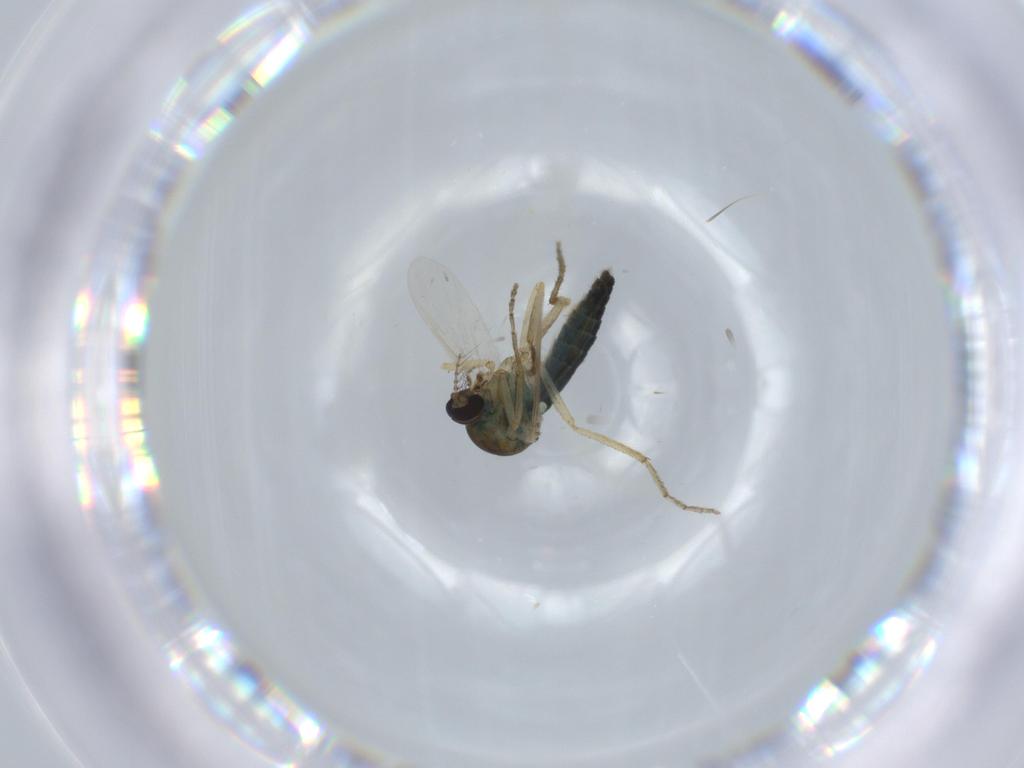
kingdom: Animalia
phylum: Arthropoda
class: Insecta
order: Diptera
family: Ceratopogonidae
